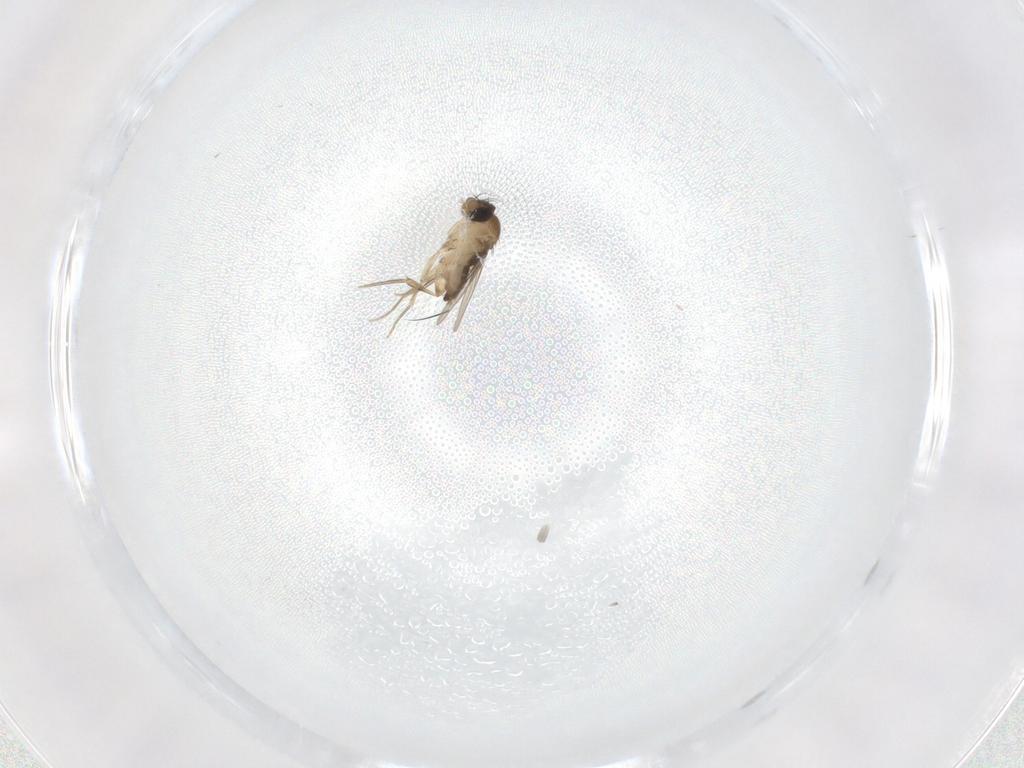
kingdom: Animalia
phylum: Arthropoda
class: Insecta
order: Diptera
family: Phoridae
